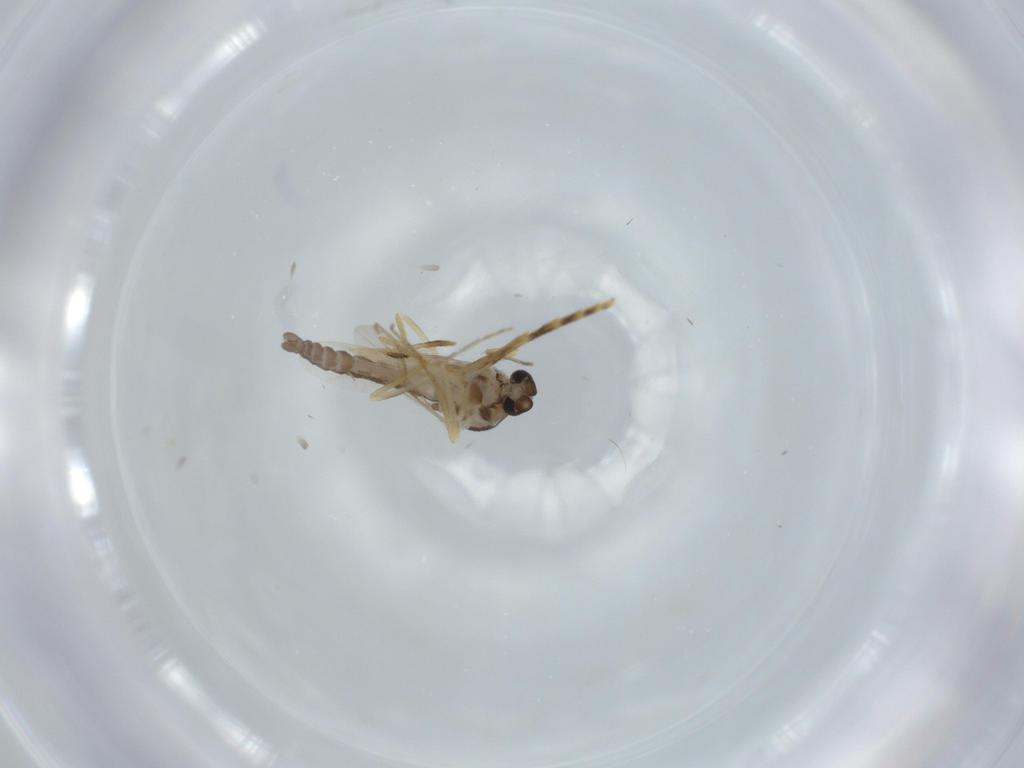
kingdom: Animalia
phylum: Arthropoda
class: Insecta
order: Diptera
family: Ceratopogonidae
